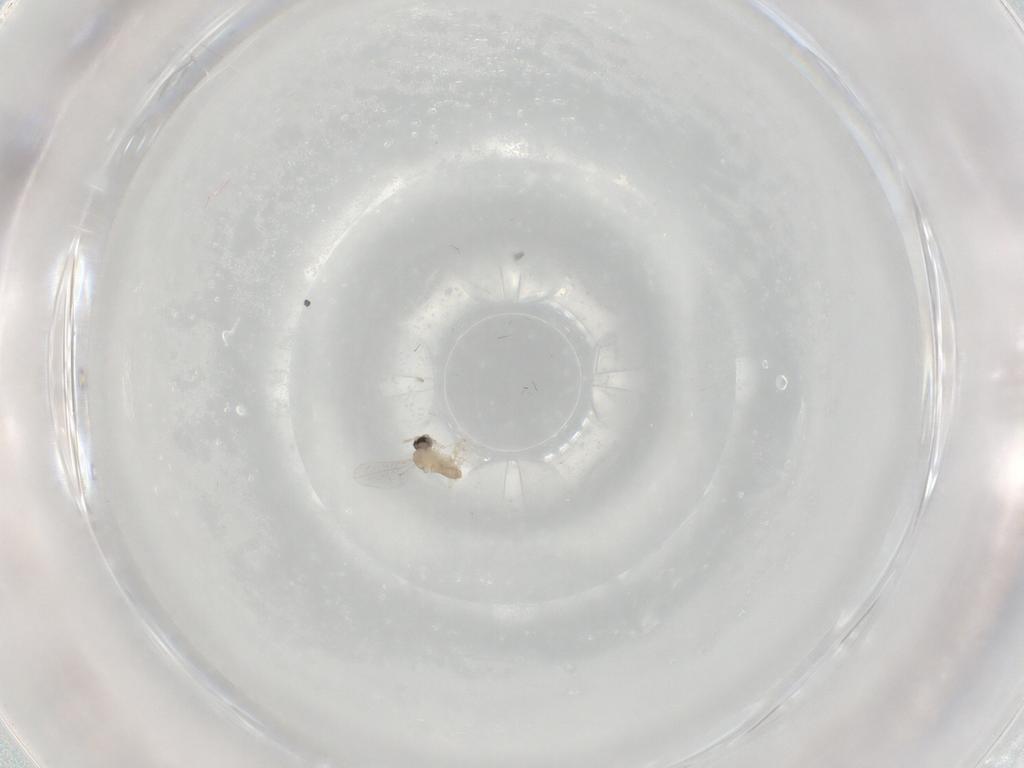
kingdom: Animalia
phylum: Arthropoda
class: Insecta
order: Diptera
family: Cecidomyiidae
